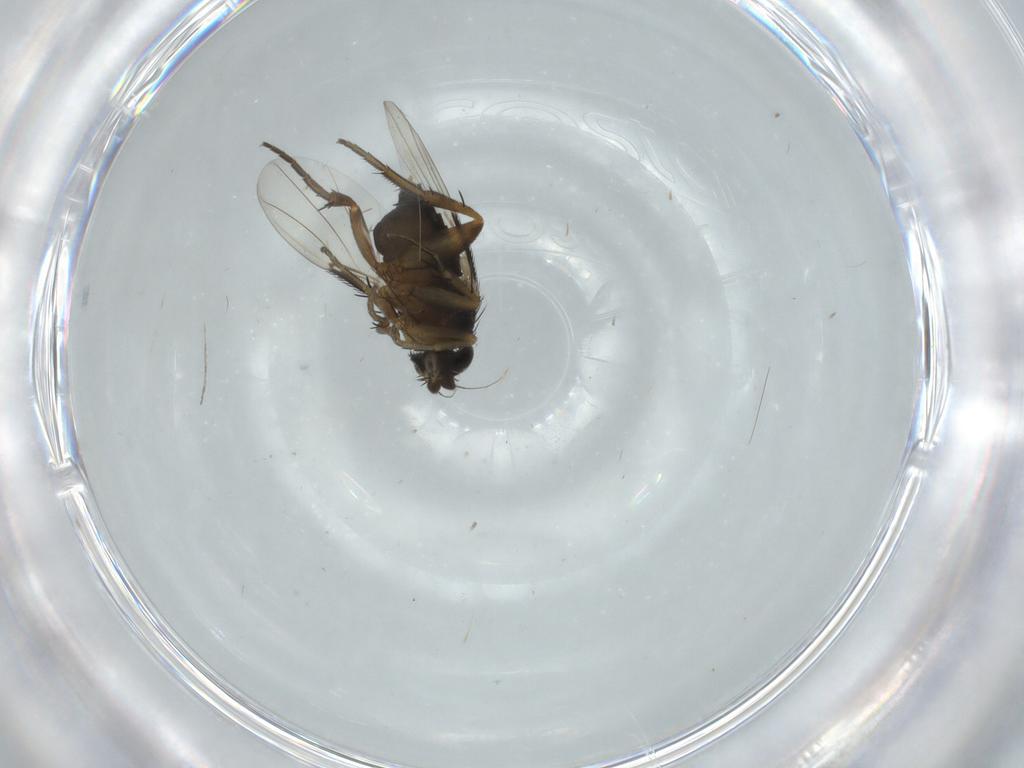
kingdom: Animalia
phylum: Arthropoda
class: Insecta
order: Diptera
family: Phoridae
